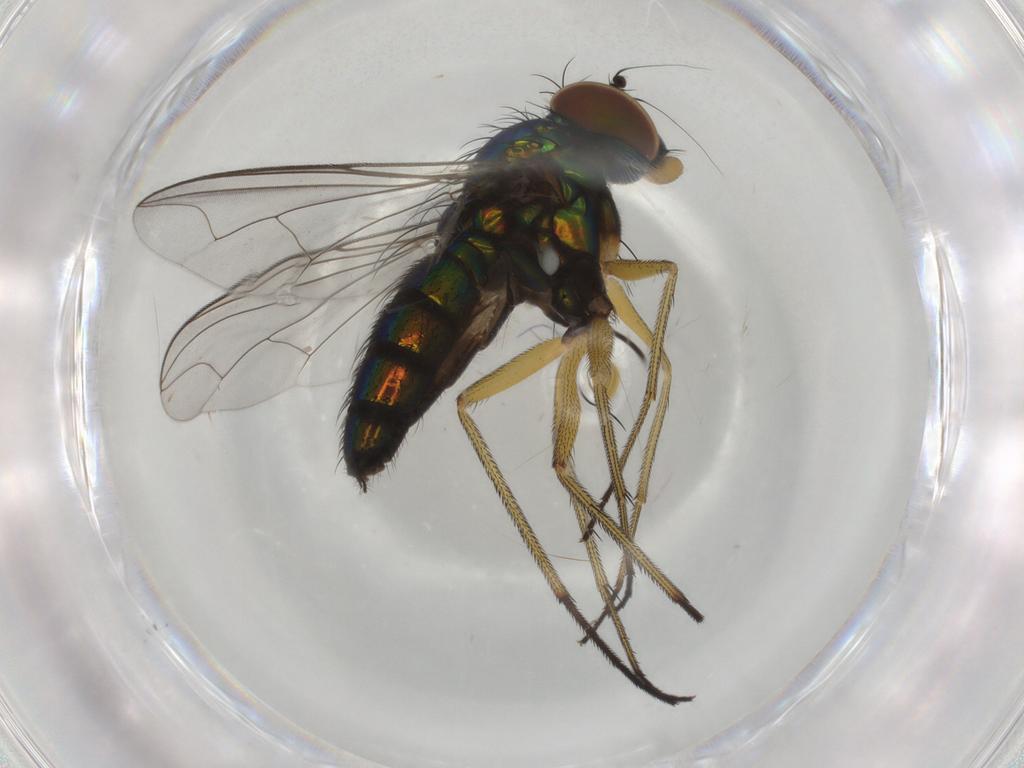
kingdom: Animalia
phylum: Arthropoda
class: Insecta
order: Diptera
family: Dolichopodidae
